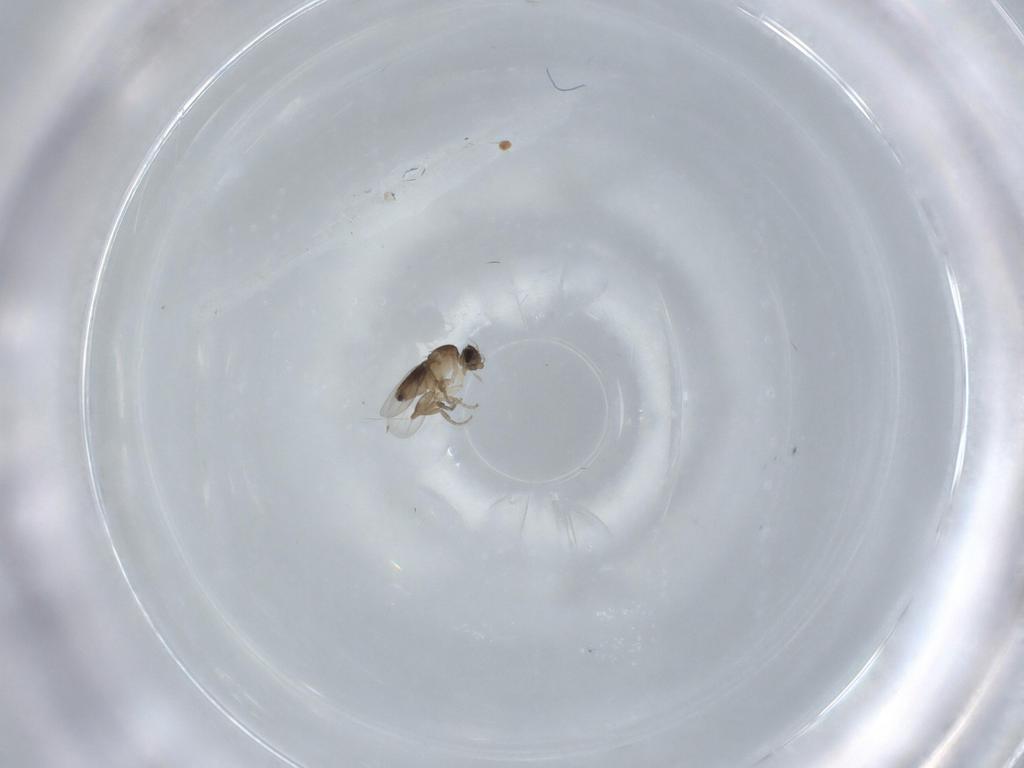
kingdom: Animalia
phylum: Arthropoda
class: Insecta
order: Diptera
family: Phoridae
